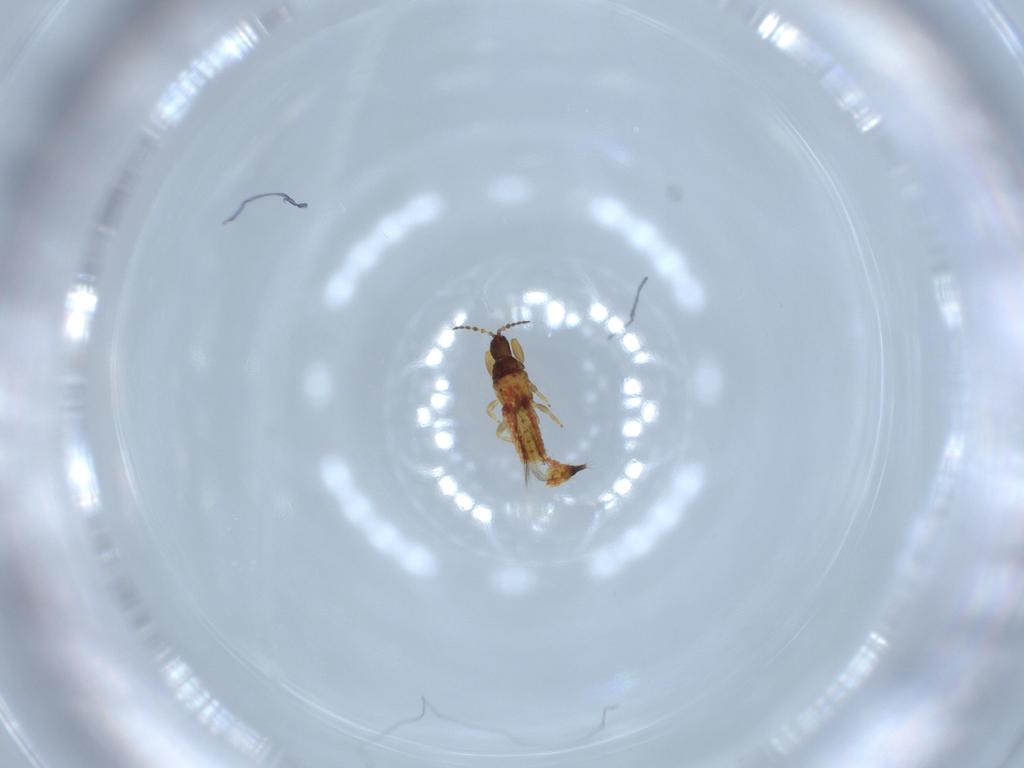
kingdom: Animalia
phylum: Arthropoda
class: Insecta
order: Thysanoptera
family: Phlaeothripidae
